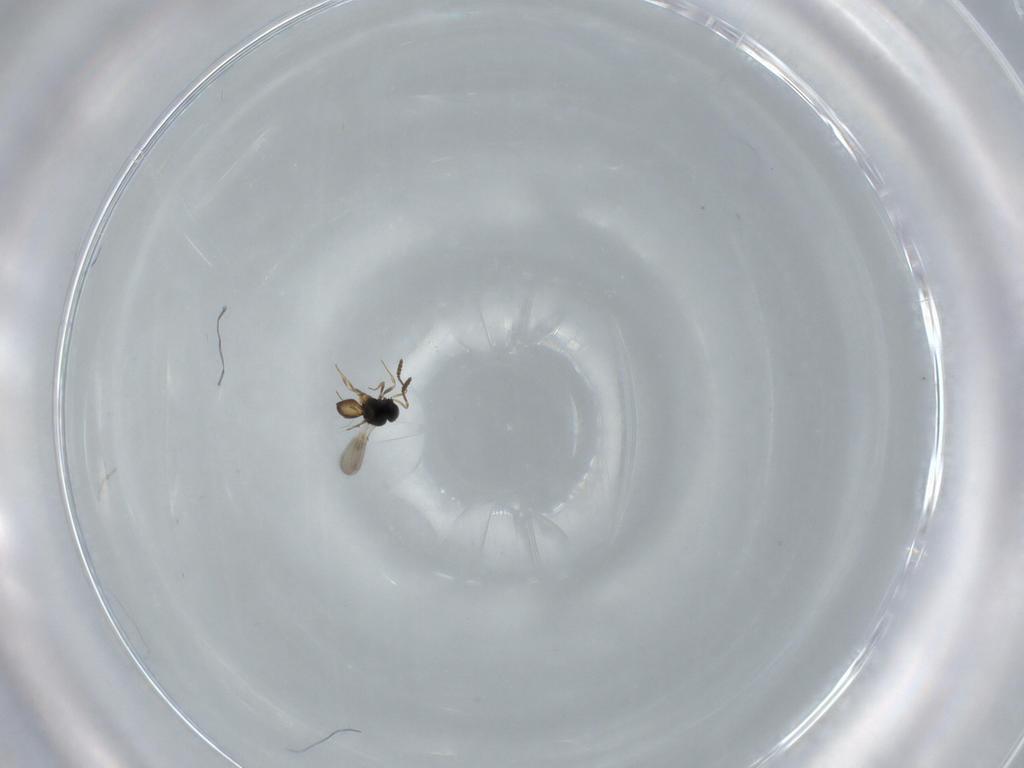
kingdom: Animalia
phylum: Arthropoda
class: Insecta
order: Hymenoptera
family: Scelionidae
